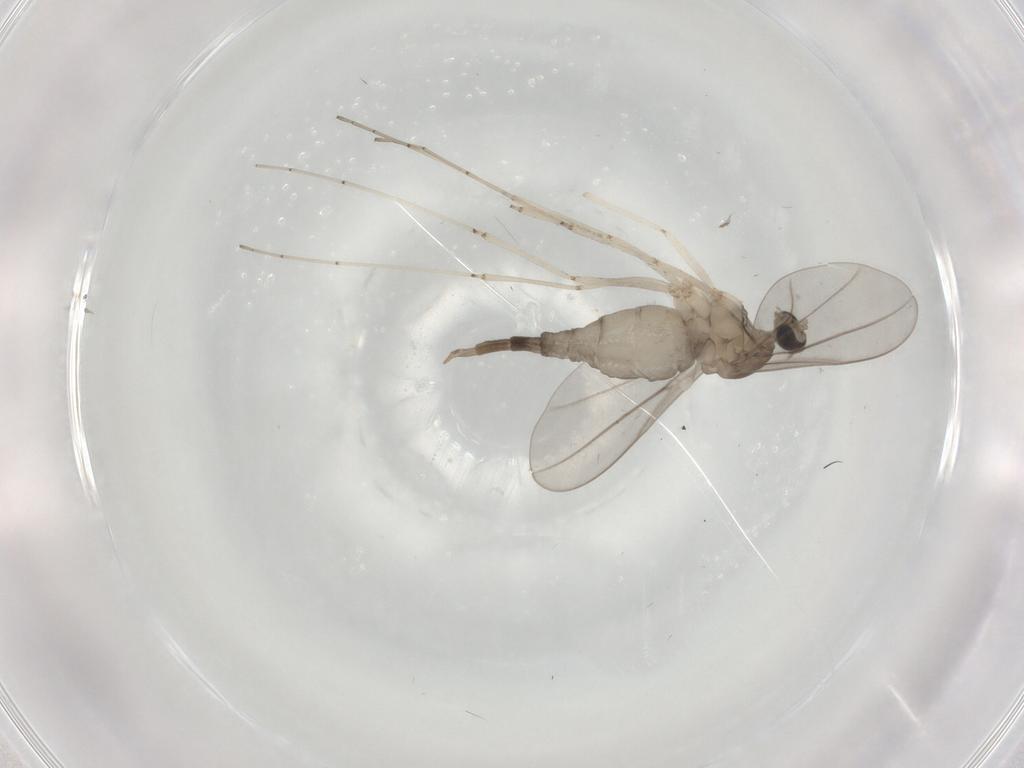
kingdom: Animalia
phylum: Arthropoda
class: Insecta
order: Diptera
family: Cecidomyiidae
